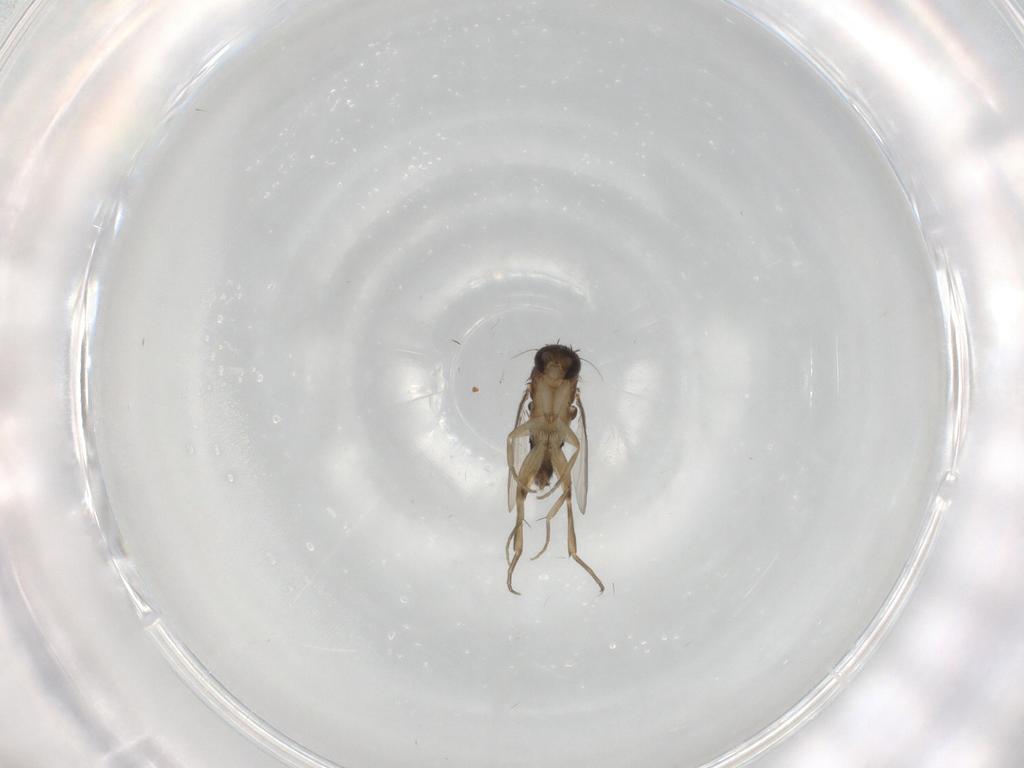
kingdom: Animalia
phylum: Arthropoda
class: Insecta
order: Diptera
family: Phoridae
